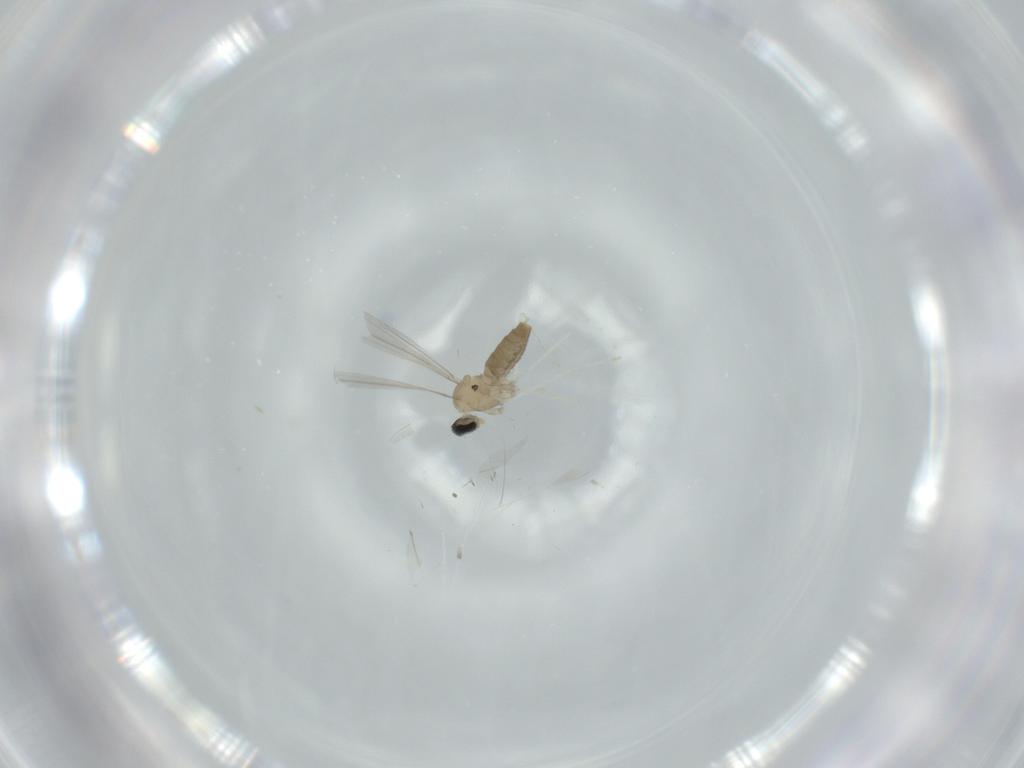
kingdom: Animalia
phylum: Arthropoda
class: Insecta
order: Diptera
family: Cecidomyiidae
